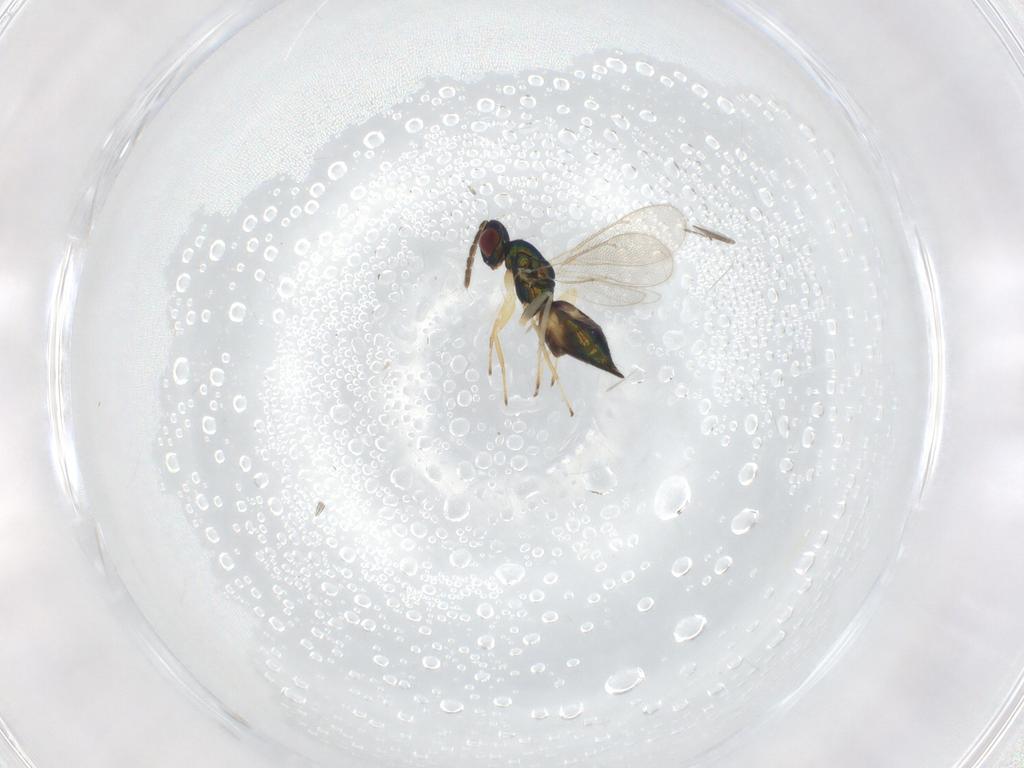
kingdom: Animalia
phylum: Arthropoda
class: Insecta
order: Hymenoptera
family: Eulophidae
